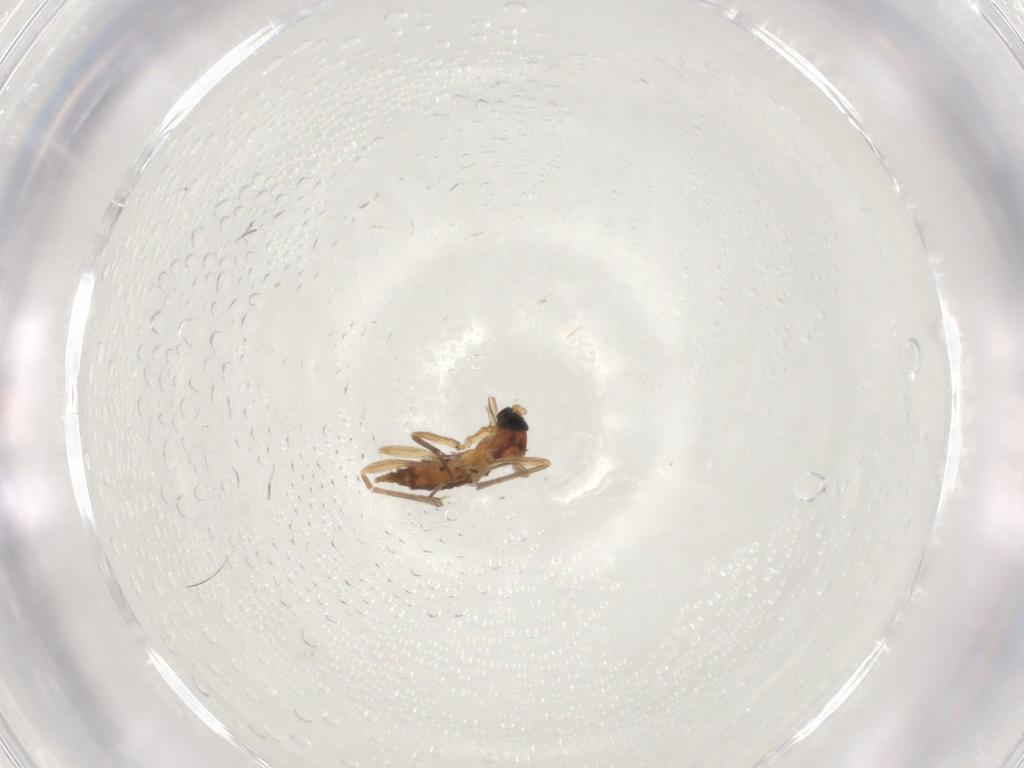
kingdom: Animalia
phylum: Arthropoda
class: Insecta
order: Diptera
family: Sciaridae
